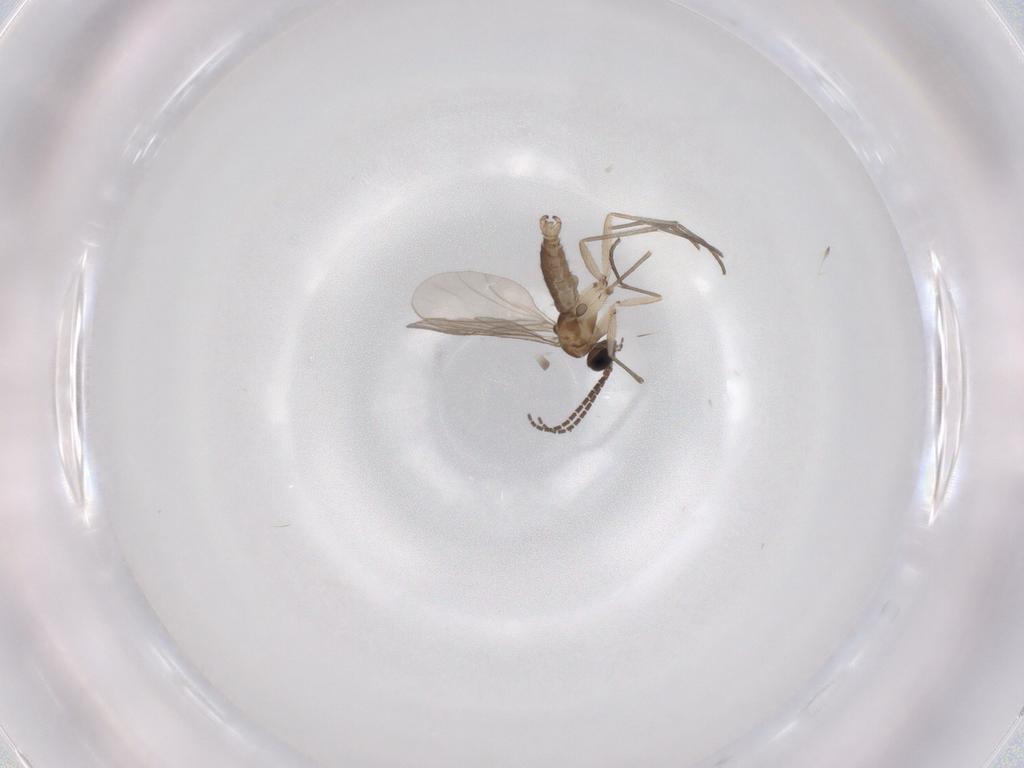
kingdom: Animalia
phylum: Arthropoda
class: Insecta
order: Diptera
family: Sciaridae
